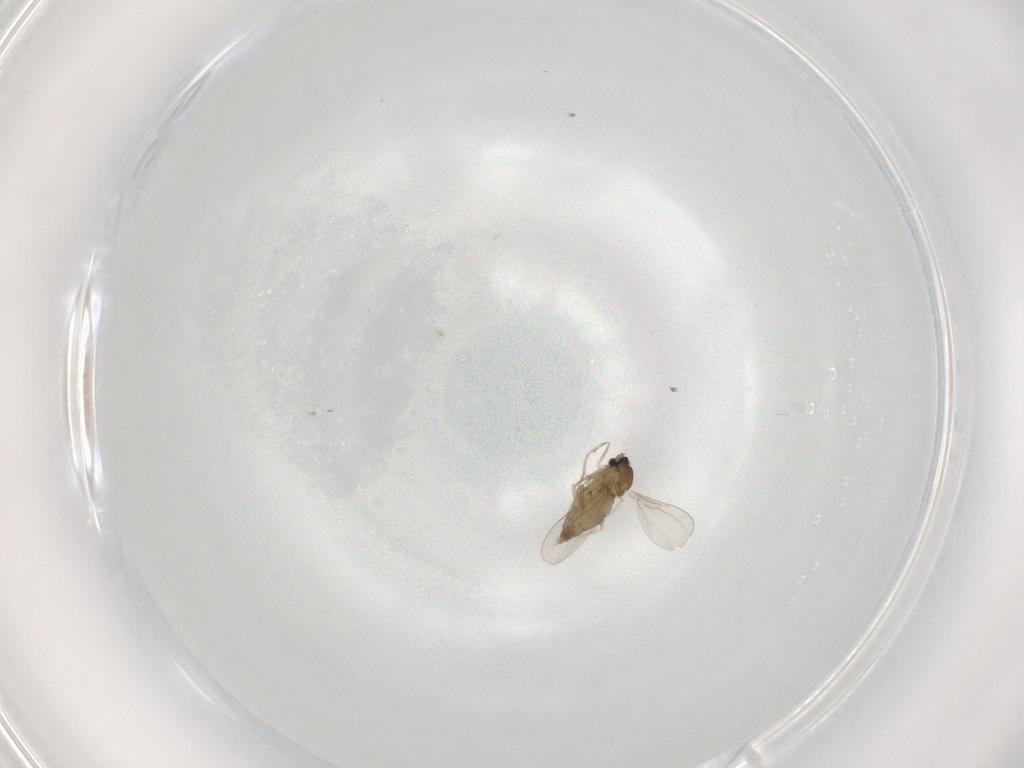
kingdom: Animalia
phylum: Arthropoda
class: Insecta
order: Diptera
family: Cecidomyiidae
